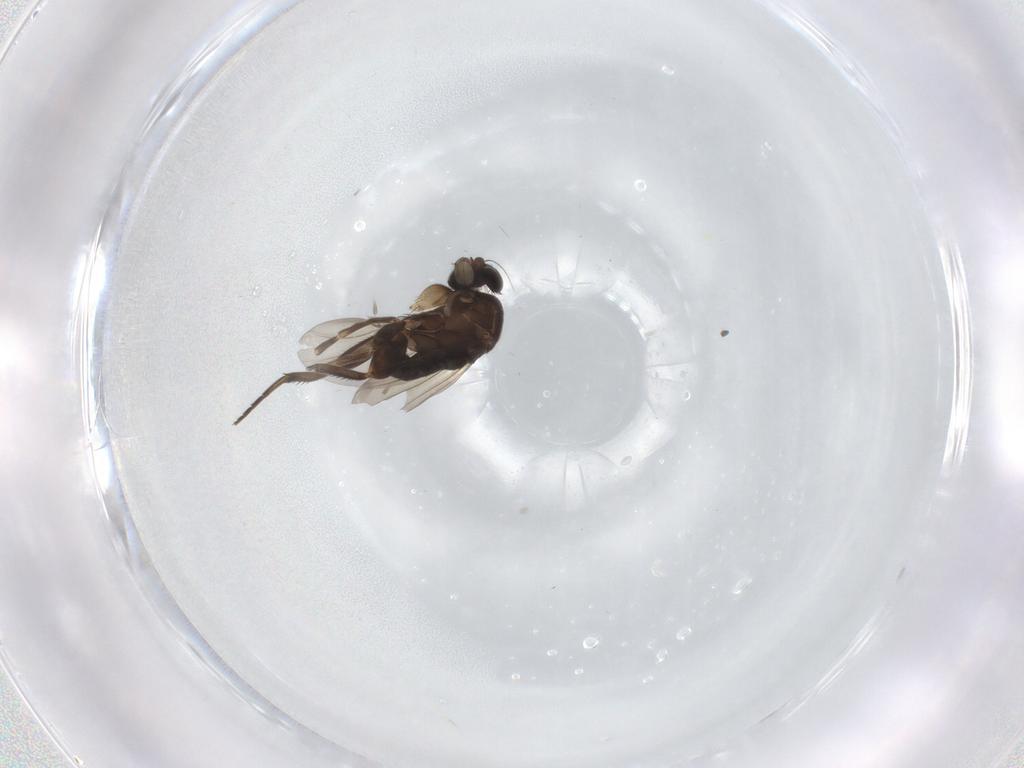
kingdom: Animalia
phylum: Arthropoda
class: Insecta
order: Diptera
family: Phoridae
